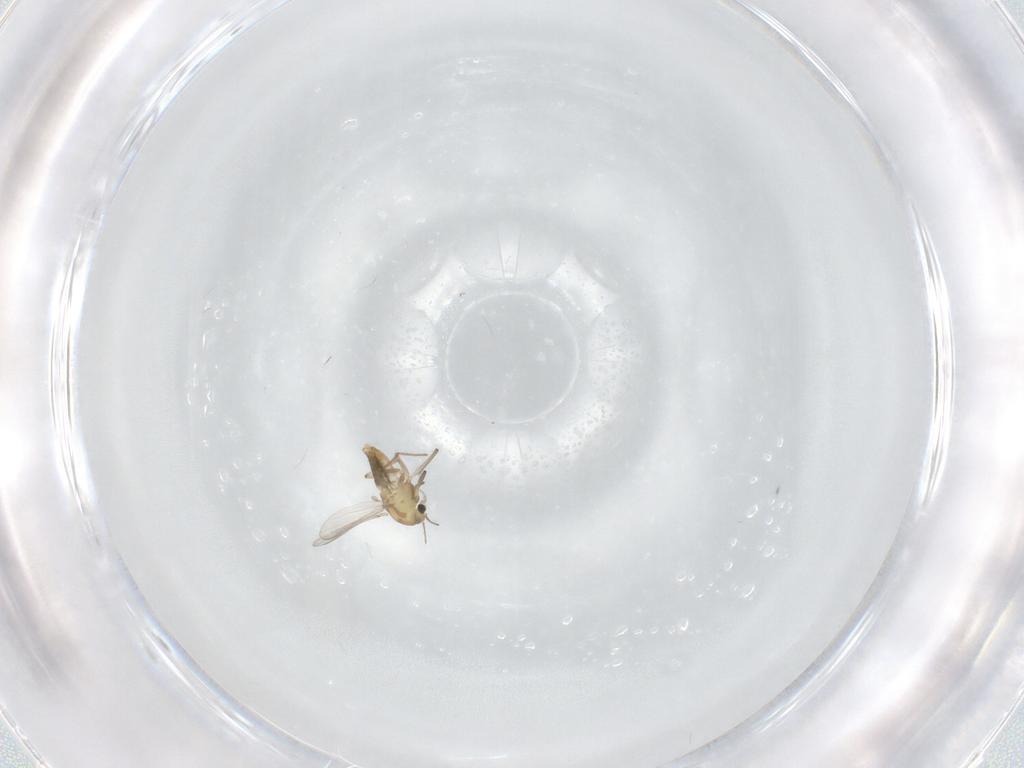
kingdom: Animalia
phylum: Arthropoda
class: Insecta
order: Diptera
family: Chironomidae
